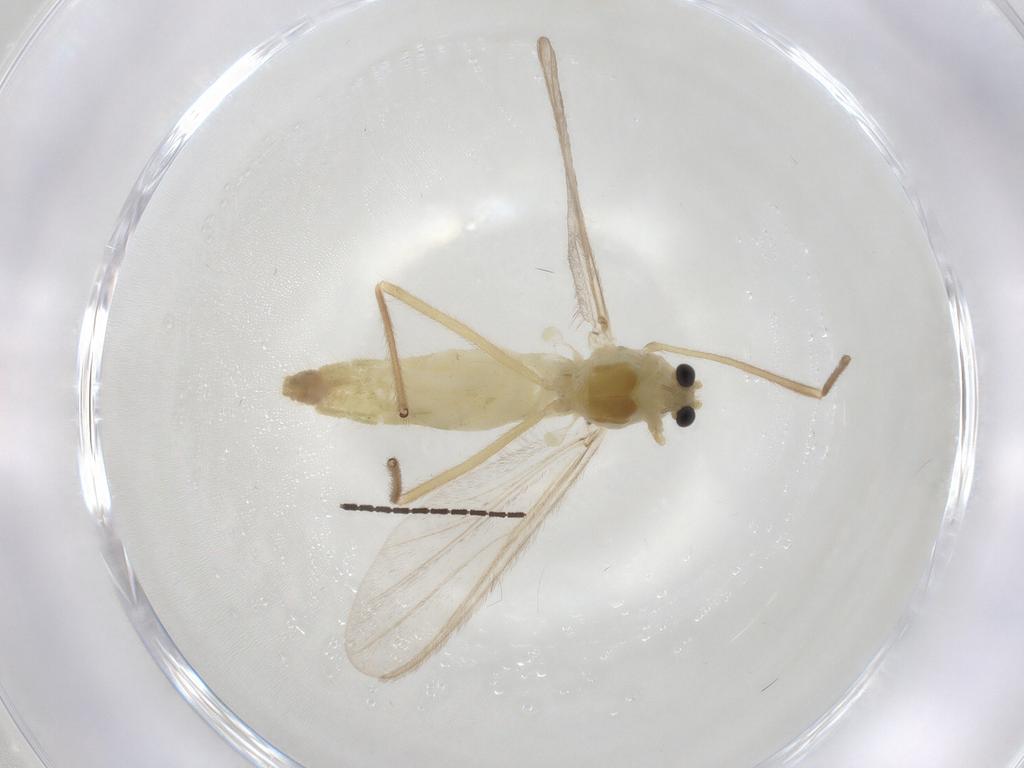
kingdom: Animalia
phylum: Arthropoda
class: Insecta
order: Diptera
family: Chironomidae
